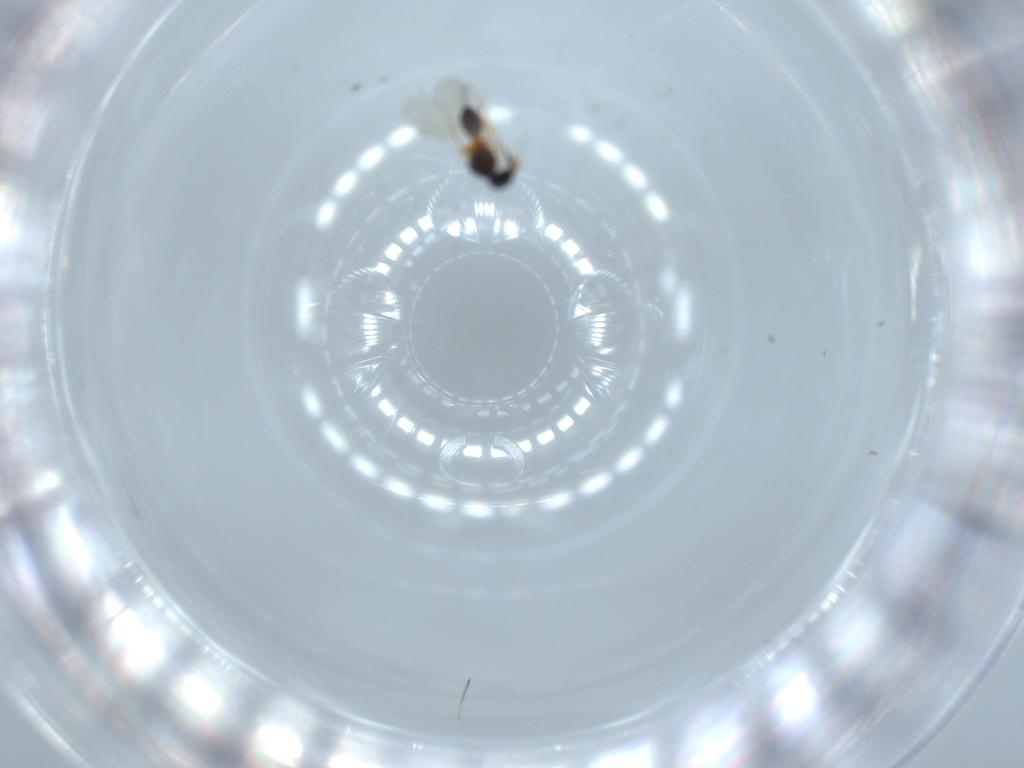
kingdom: Animalia
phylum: Arthropoda
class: Insecta
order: Hymenoptera
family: Platygastridae
